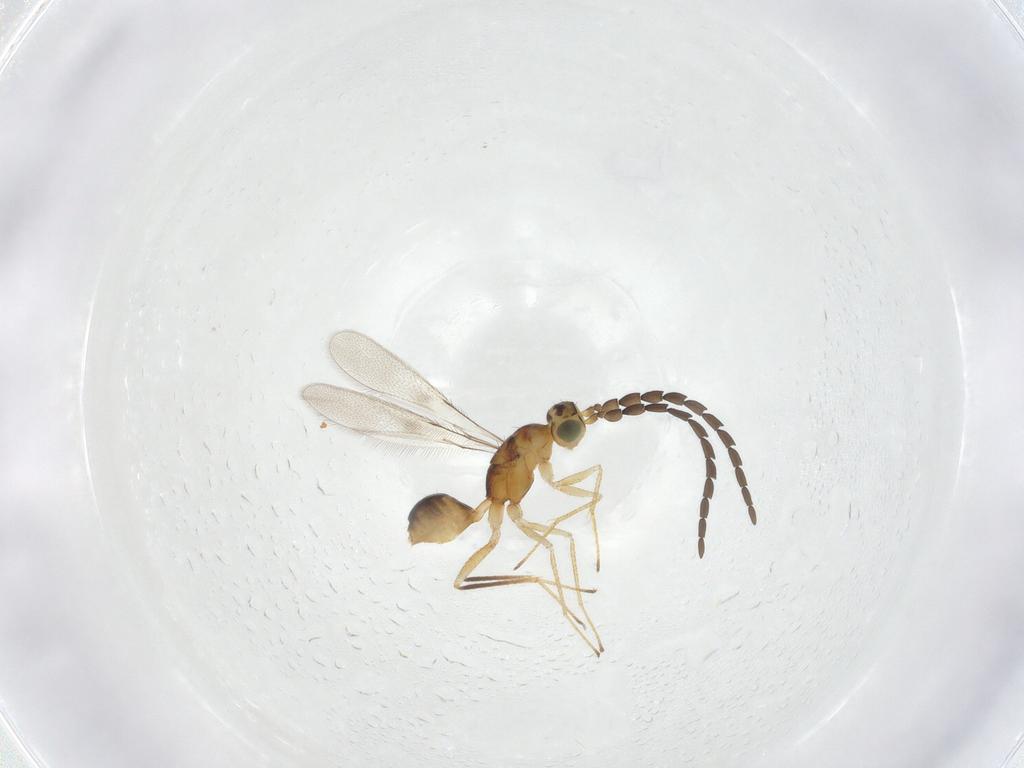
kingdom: Animalia
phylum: Arthropoda
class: Insecta
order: Hymenoptera
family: Mymaridae
